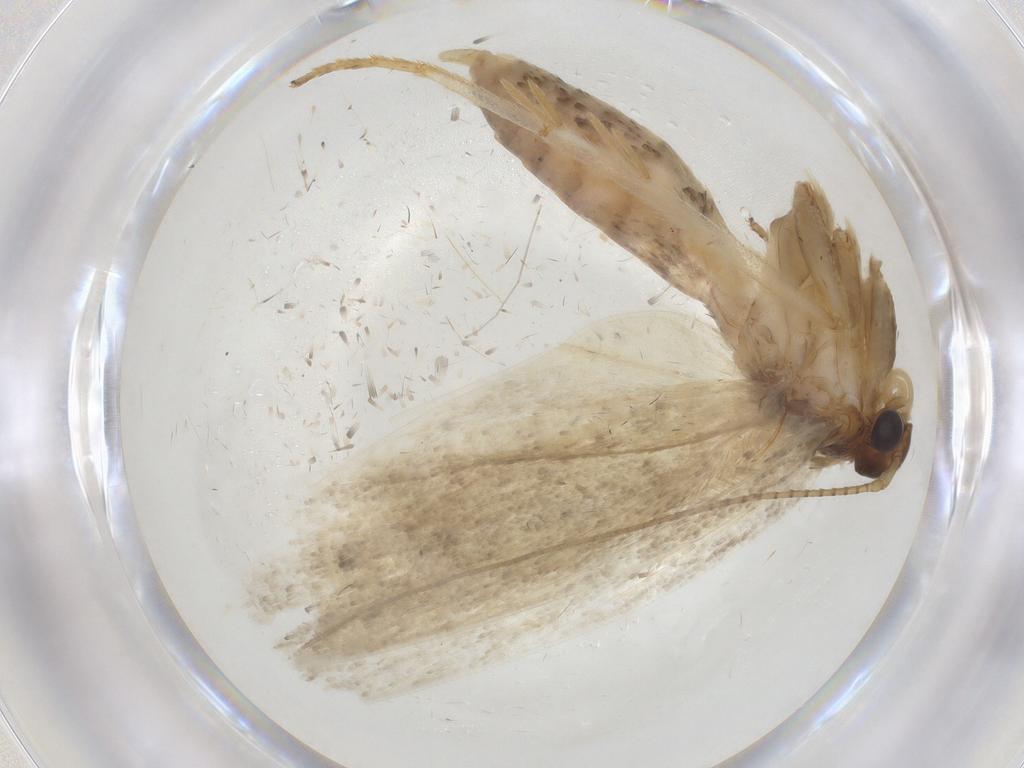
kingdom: Animalia
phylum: Arthropoda
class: Insecta
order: Lepidoptera
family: Depressariidae
